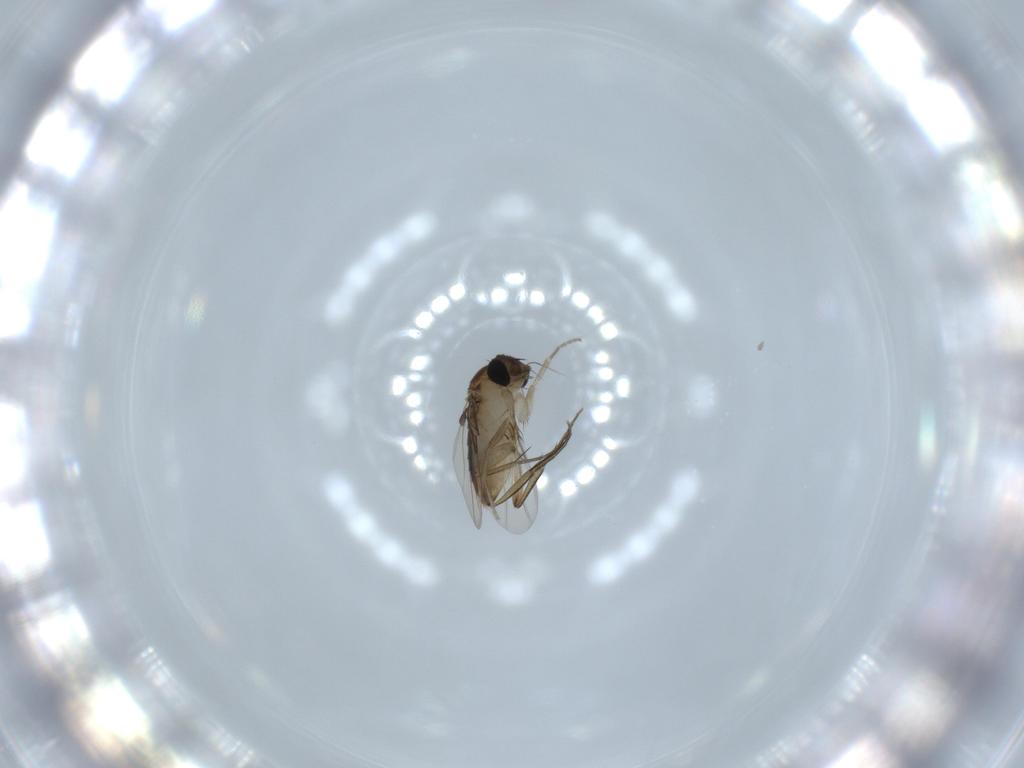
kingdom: Animalia
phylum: Arthropoda
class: Insecta
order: Diptera
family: Phoridae
